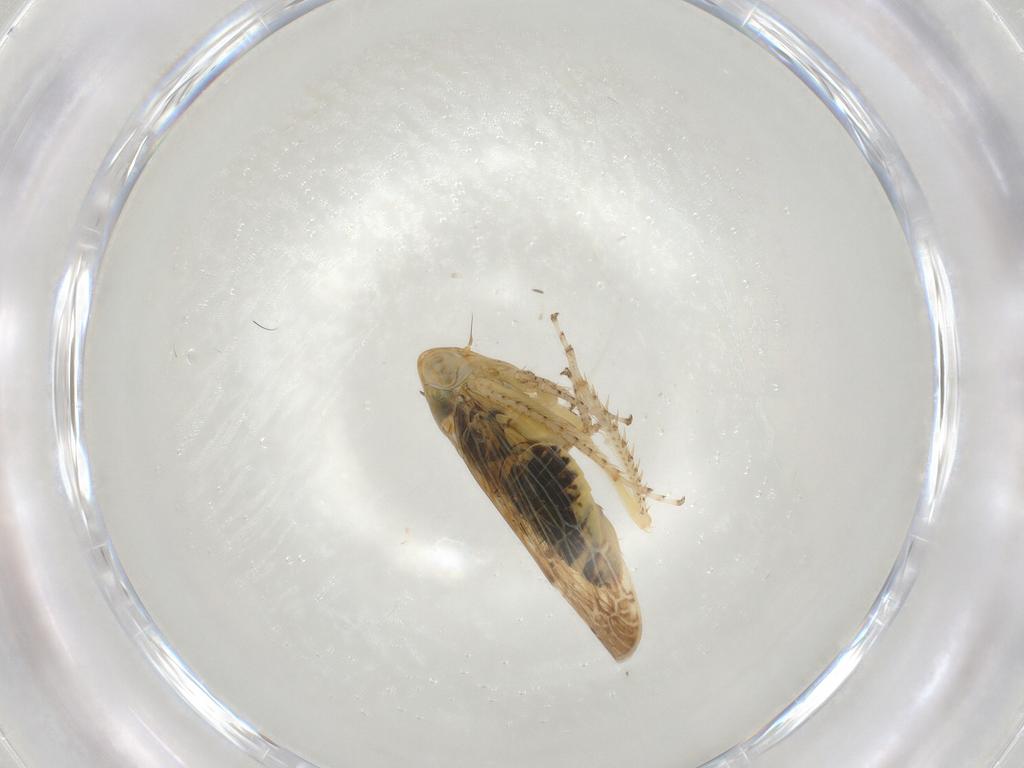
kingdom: Animalia
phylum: Arthropoda
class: Insecta
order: Hemiptera
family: Cicadellidae
